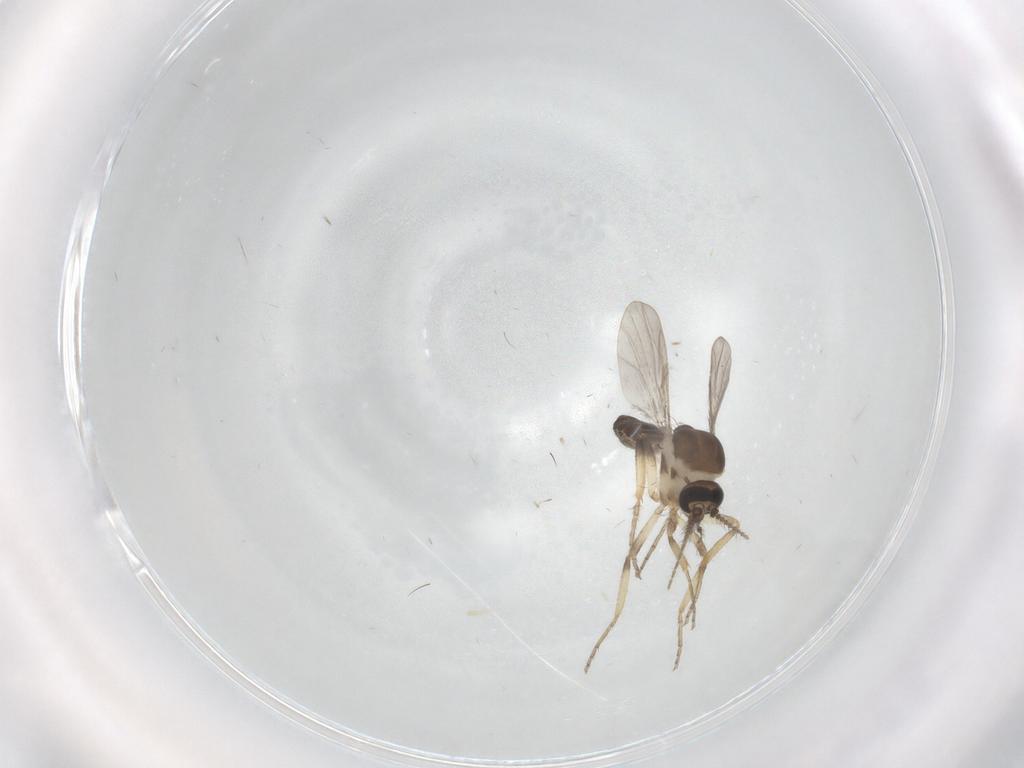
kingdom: Animalia
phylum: Arthropoda
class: Insecta
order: Diptera
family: Ceratopogonidae
